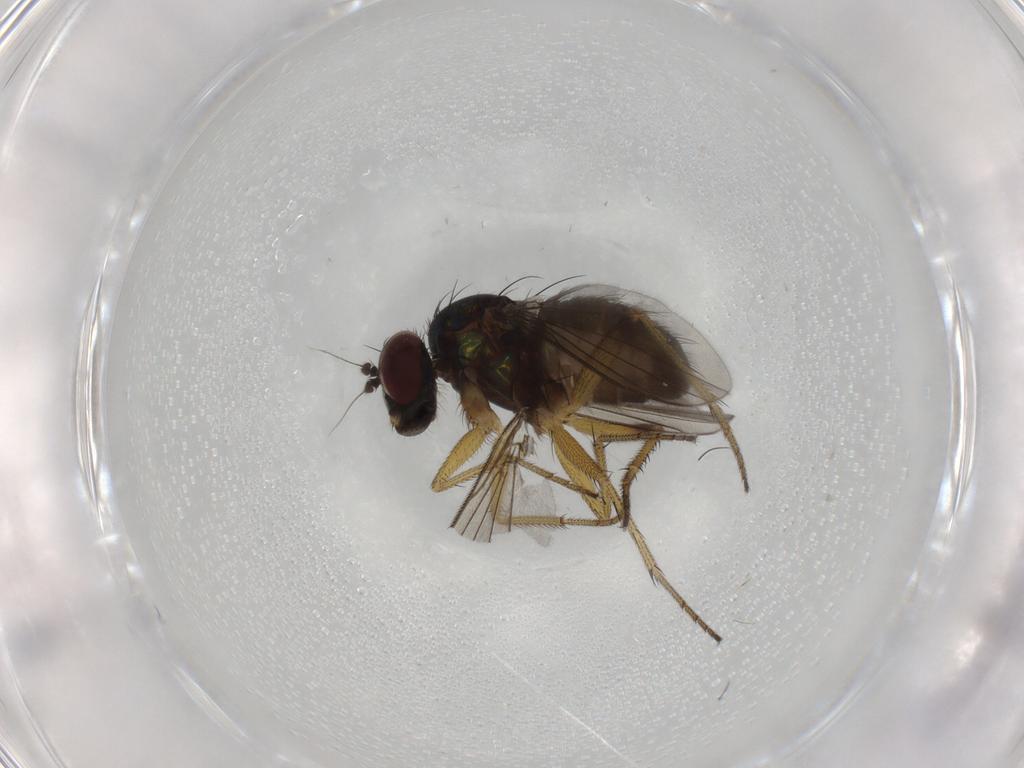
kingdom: Animalia
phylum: Arthropoda
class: Insecta
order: Diptera
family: Dolichopodidae
